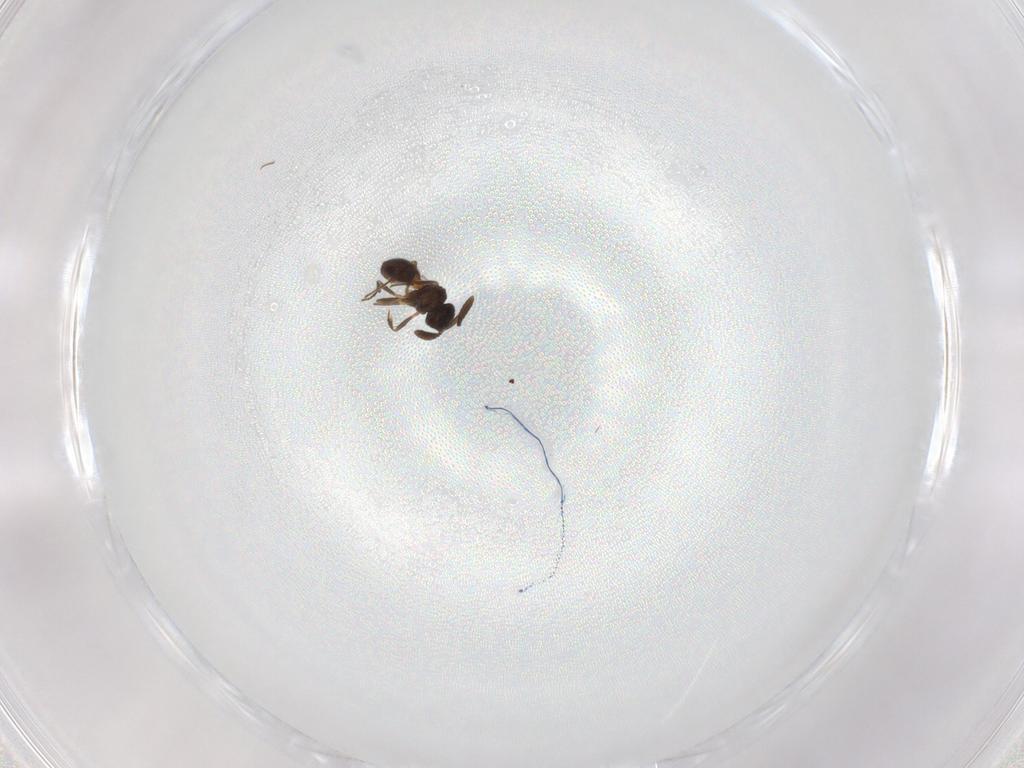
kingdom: Animalia
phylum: Arthropoda
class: Insecta
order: Hymenoptera
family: Scelionidae
